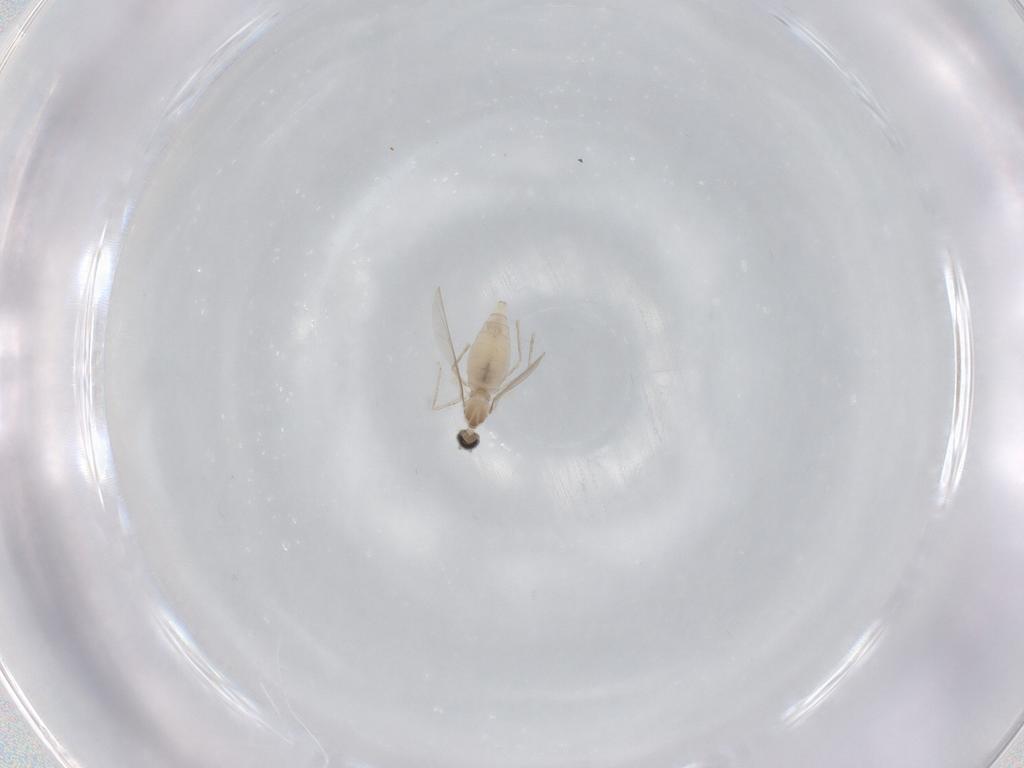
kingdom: Animalia
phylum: Arthropoda
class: Insecta
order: Diptera
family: Cecidomyiidae
